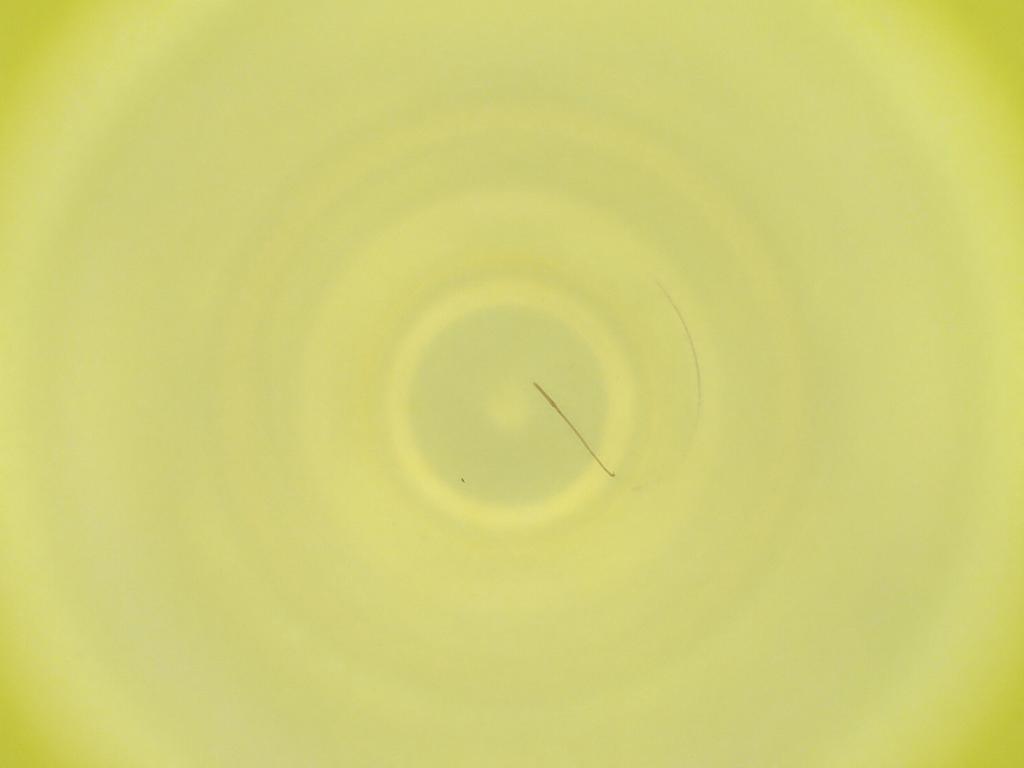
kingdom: Animalia
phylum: Arthropoda
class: Insecta
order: Diptera
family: Cecidomyiidae
